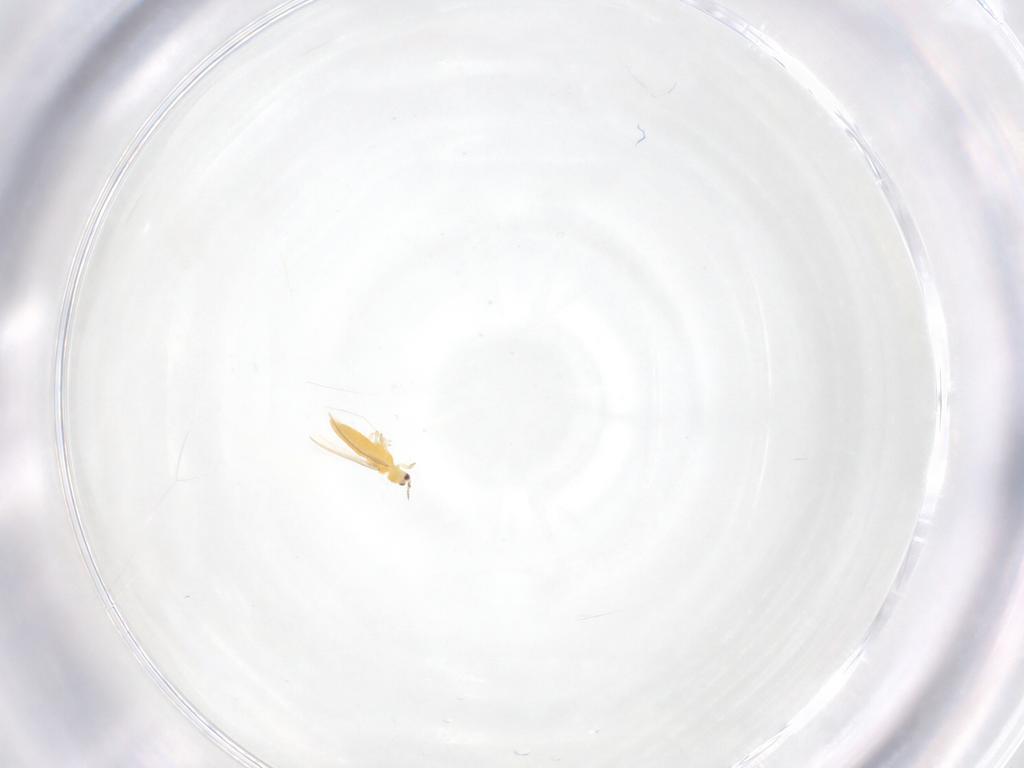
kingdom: Animalia
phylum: Arthropoda
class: Insecta
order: Thysanoptera
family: Thripidae
